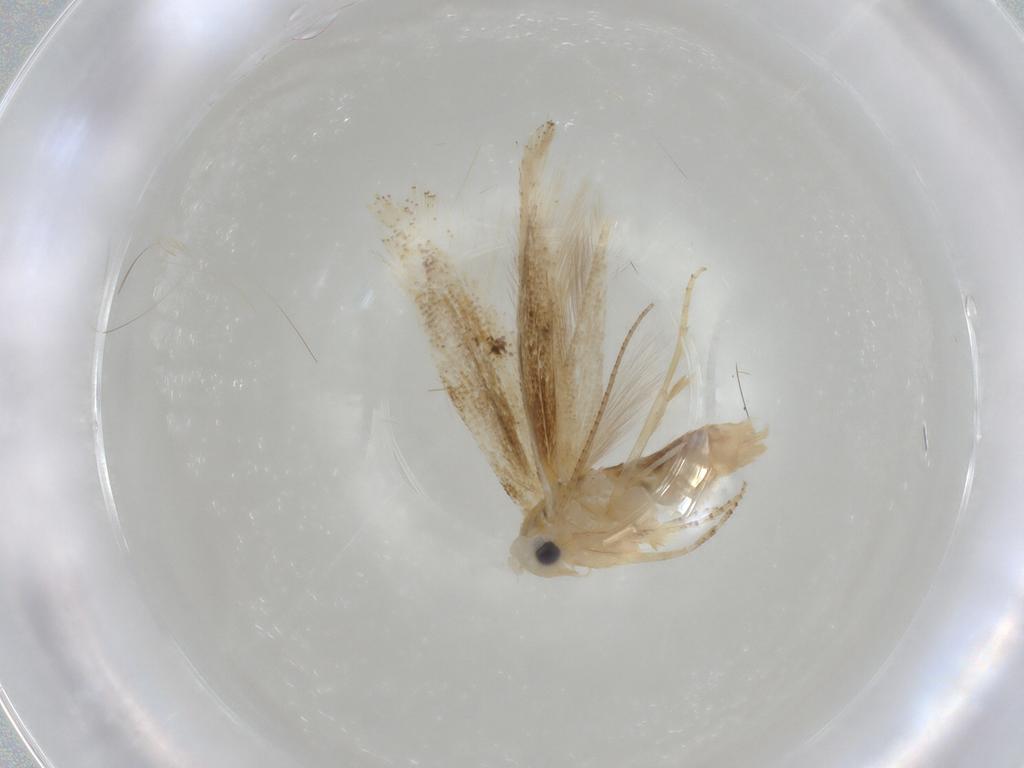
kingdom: Animalia
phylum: Arthropoda
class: Insecta
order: Lepidoptera
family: Bucculatricidae
